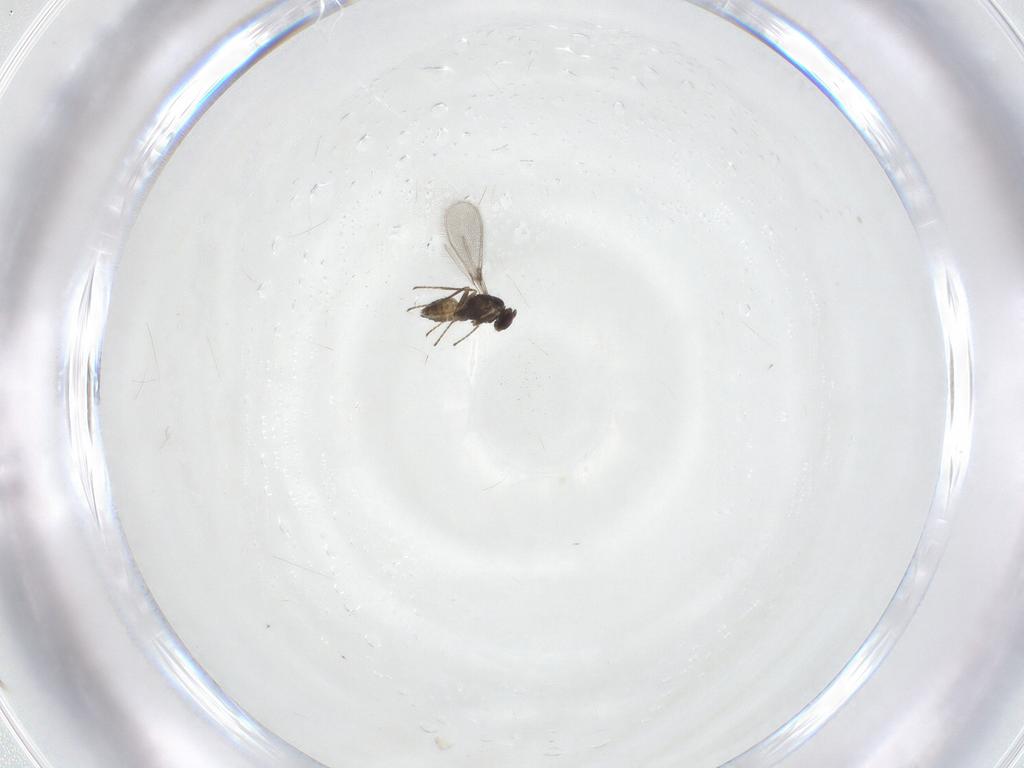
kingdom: Animalia
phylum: Arthropoda
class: Insecta
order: Hymenoptera
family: Mymaridae
